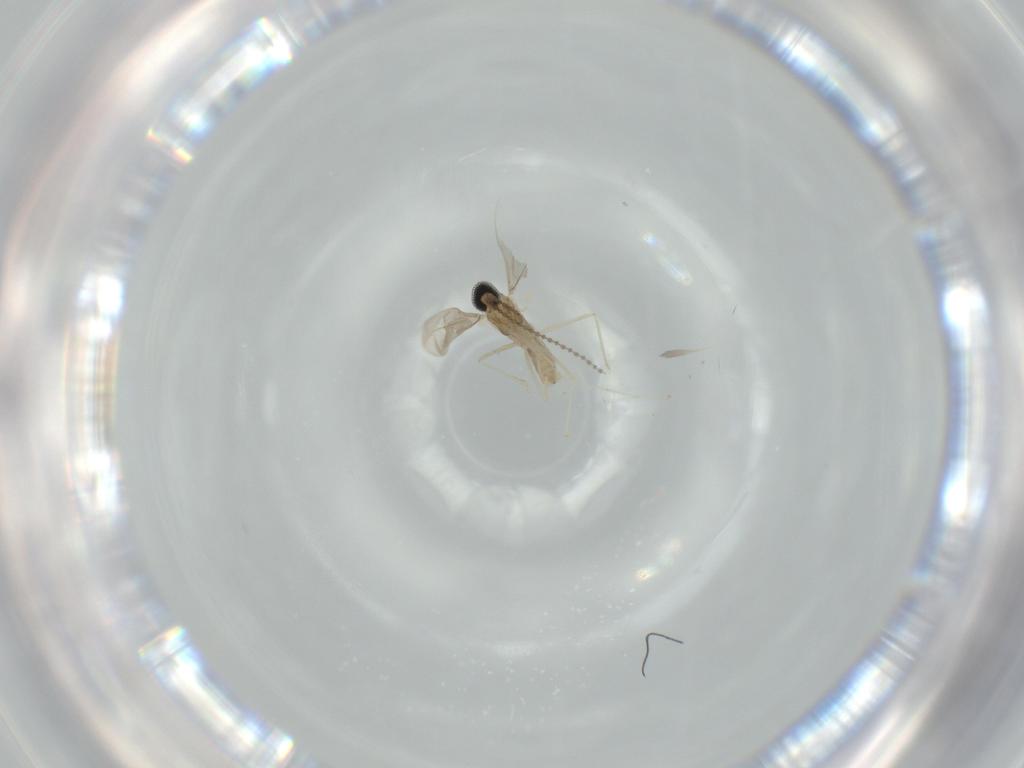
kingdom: Animalia
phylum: Arthropoda
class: Insecta
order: Diptera
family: Cecidomyiidae
